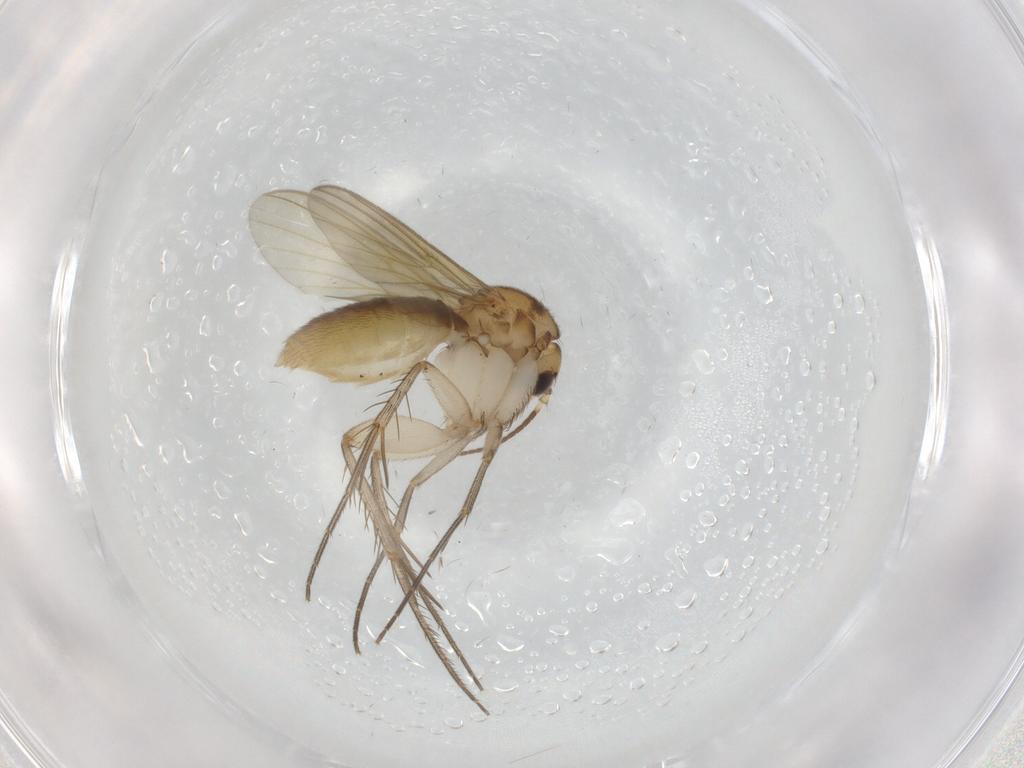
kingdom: Animalia
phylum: Arthropoda
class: Insecta
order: Diptera
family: Mycetophilidae
